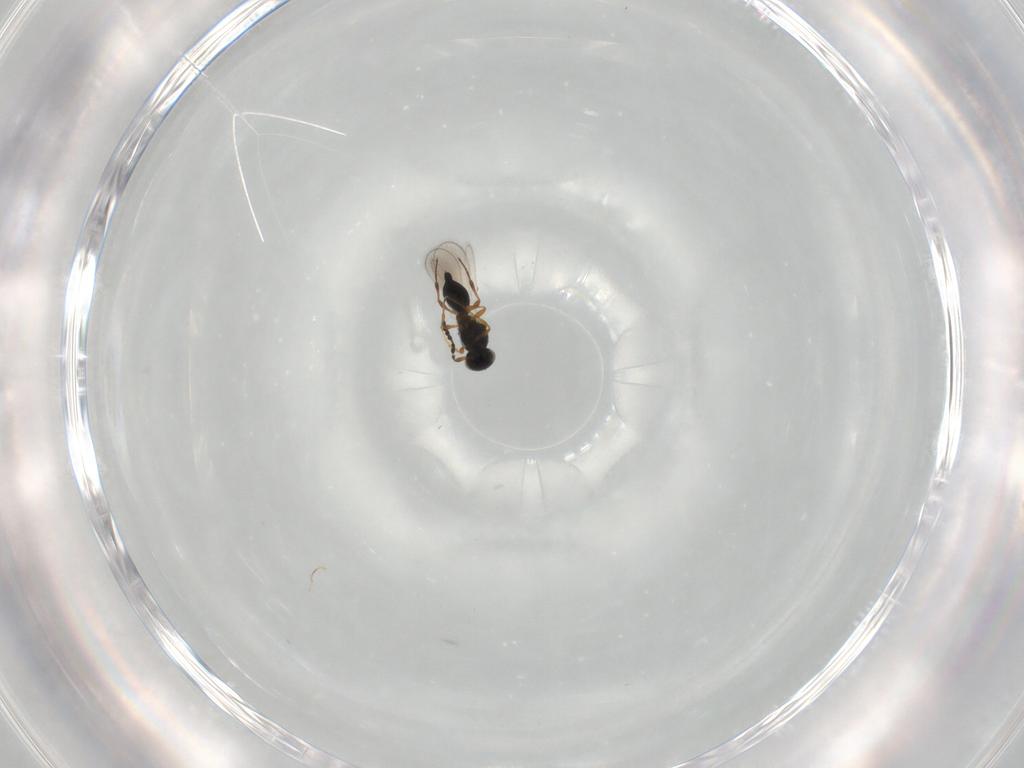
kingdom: Animalia
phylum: Arthropoda
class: Insecta
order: Hymenoptera
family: Platygastridae
